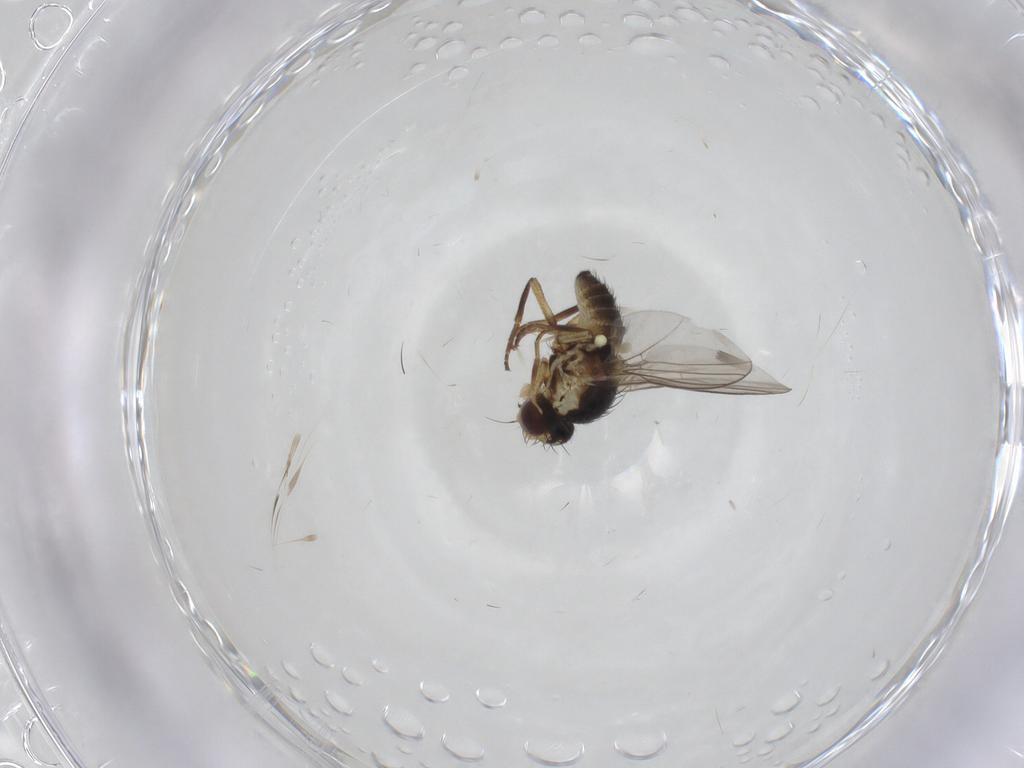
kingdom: Animalia
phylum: Arthropoda
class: Insecta
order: Diptera
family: Agromyzidae
